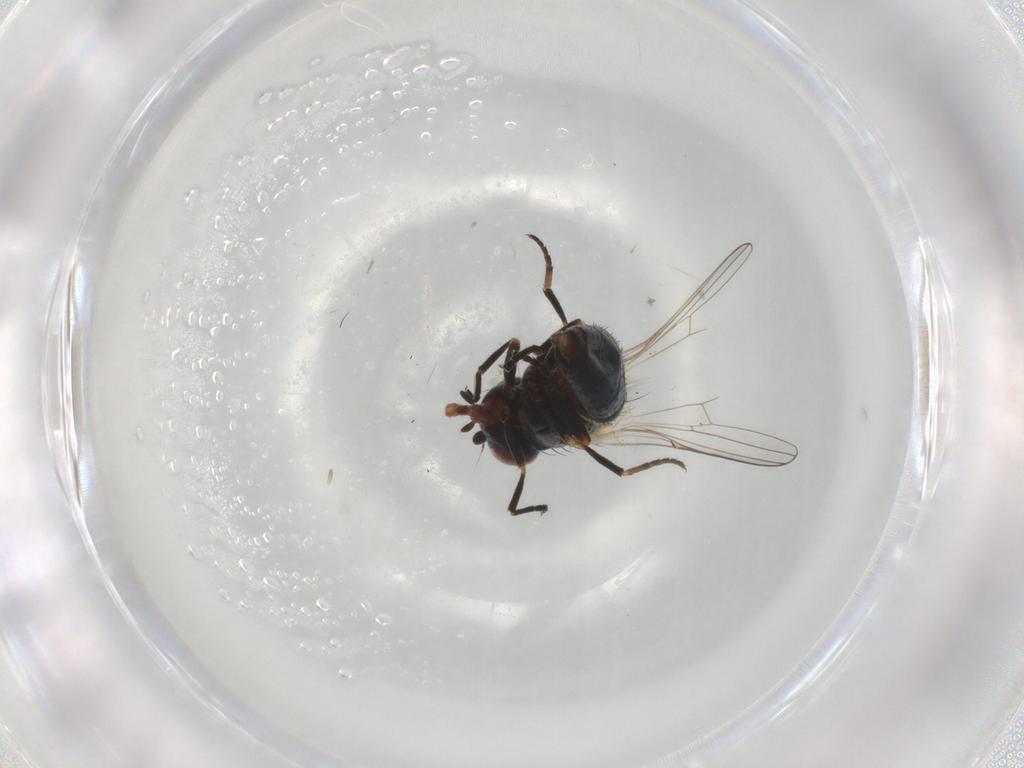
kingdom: Animalia
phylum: Arthropoda
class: Insecta
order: Diptera
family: Chamaemyiidae
